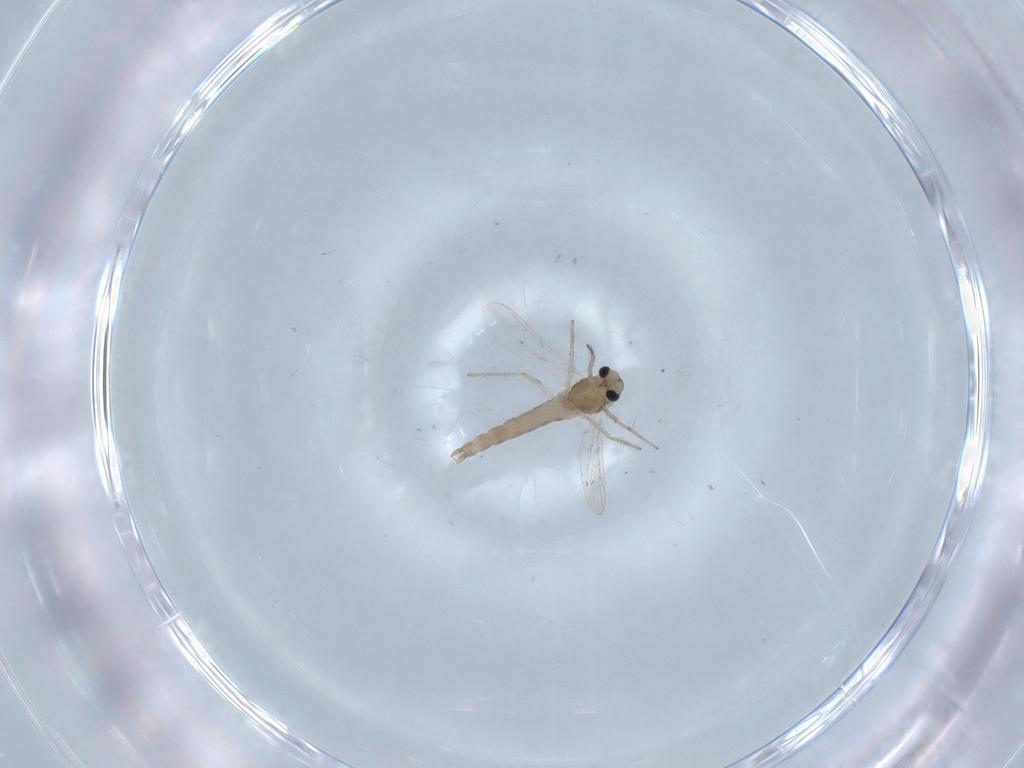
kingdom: Animalia
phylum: Arthropoda
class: Insecta
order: Diptera
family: Chironomidae
